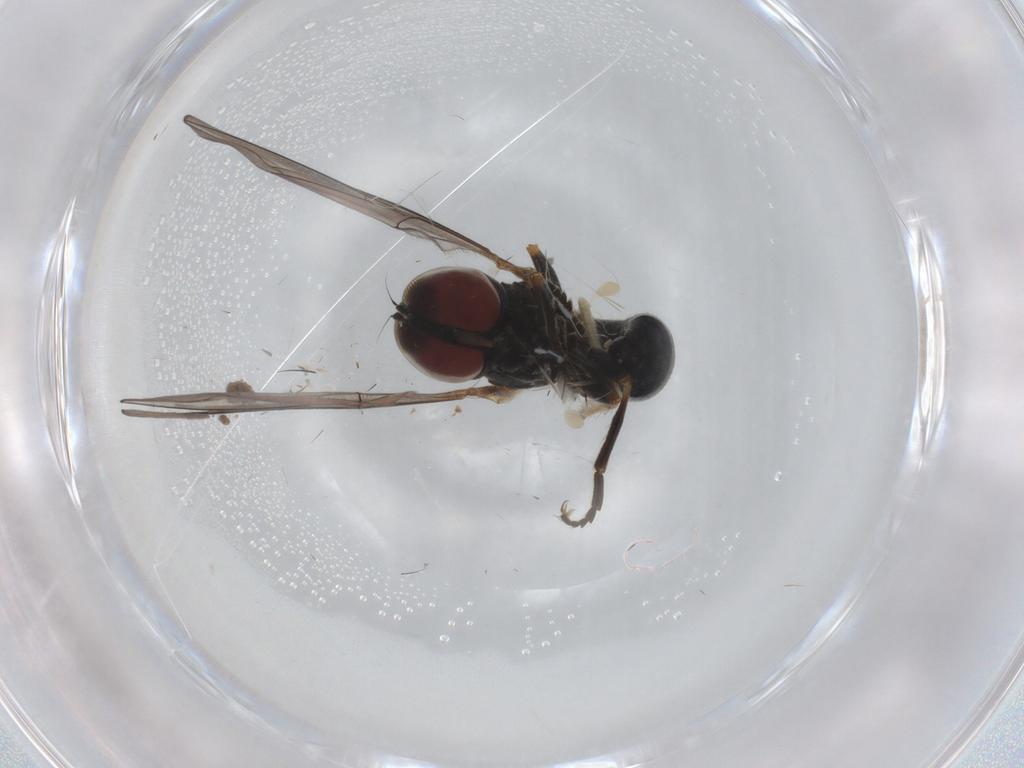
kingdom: Animalia
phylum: Arthropoda
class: Insecta
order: Diptera
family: Pipunculidae
